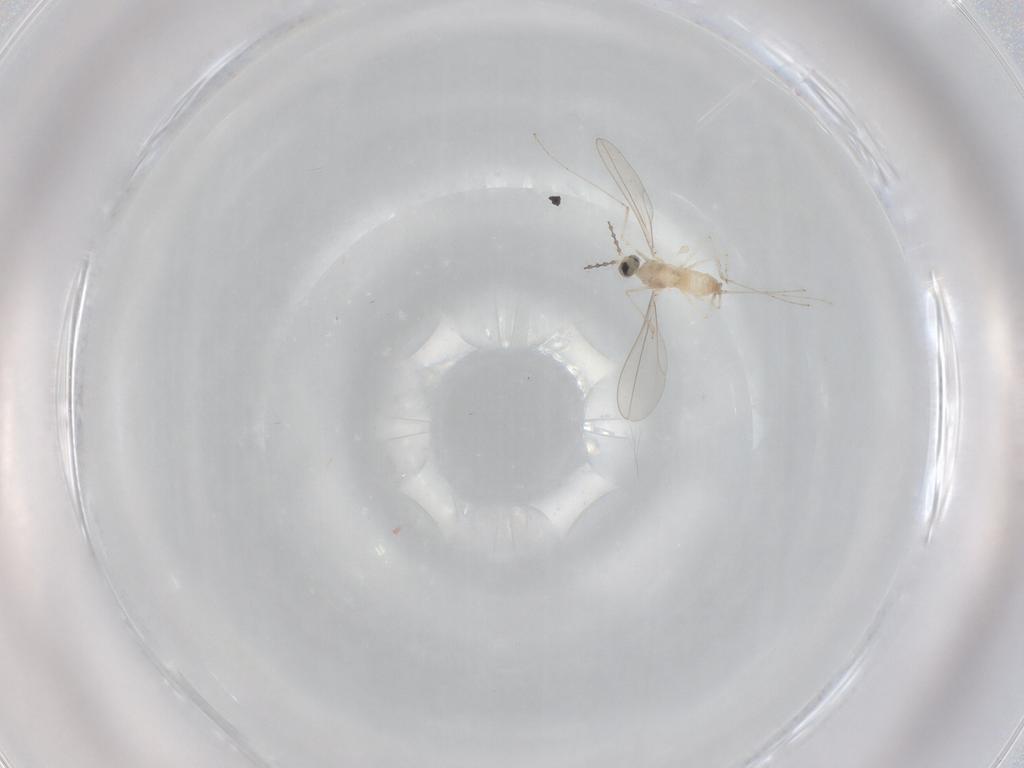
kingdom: Animalia
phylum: Arthropoda
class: Insecta
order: Diptera
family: Cecidomyiidae
